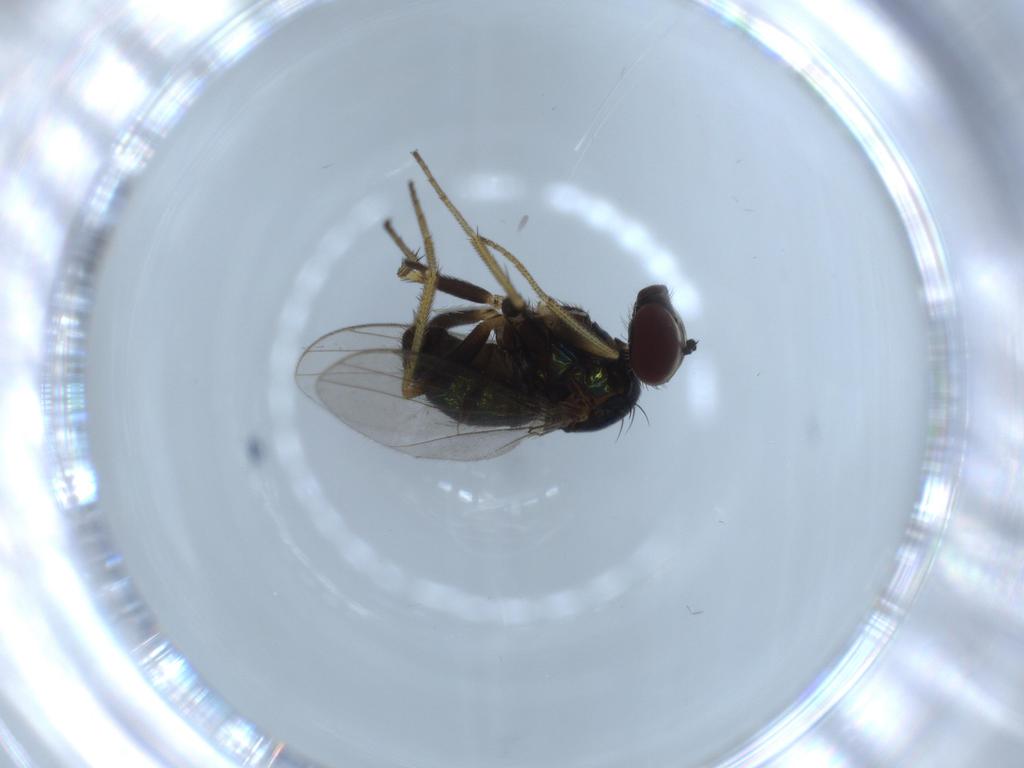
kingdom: Animalia
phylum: Arthropoda
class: Insecta
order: Diptera
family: Dolichopodidae
